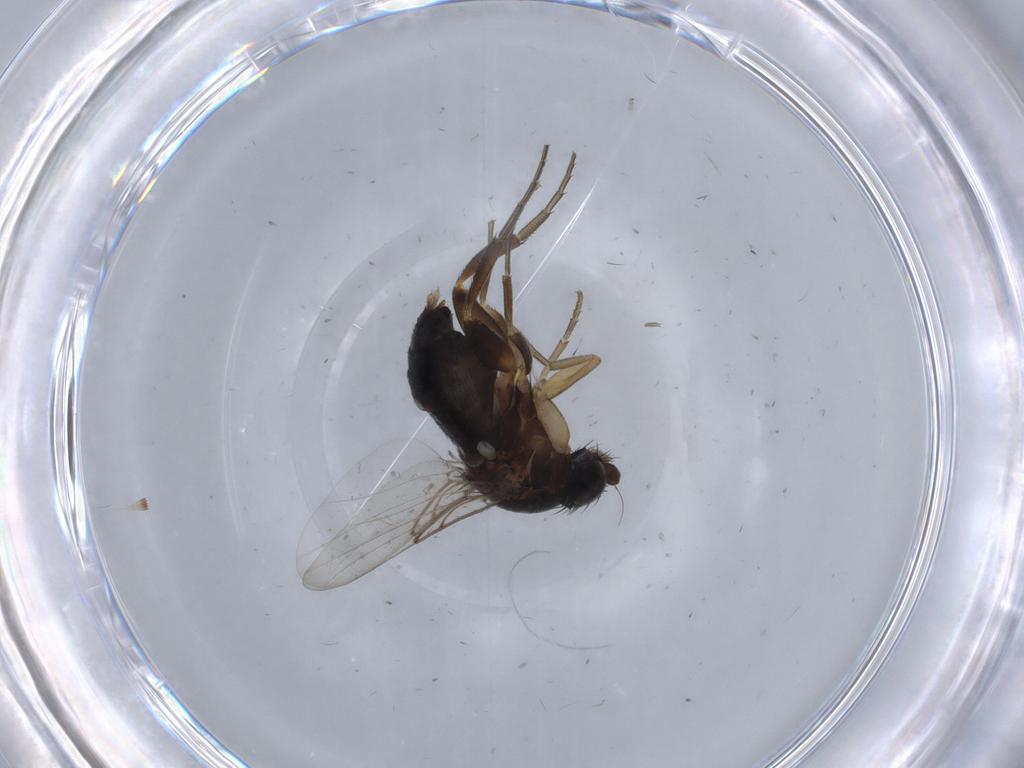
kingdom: Animalia
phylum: Arthropoda
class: Insecta
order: Diptera
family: Phoridae
